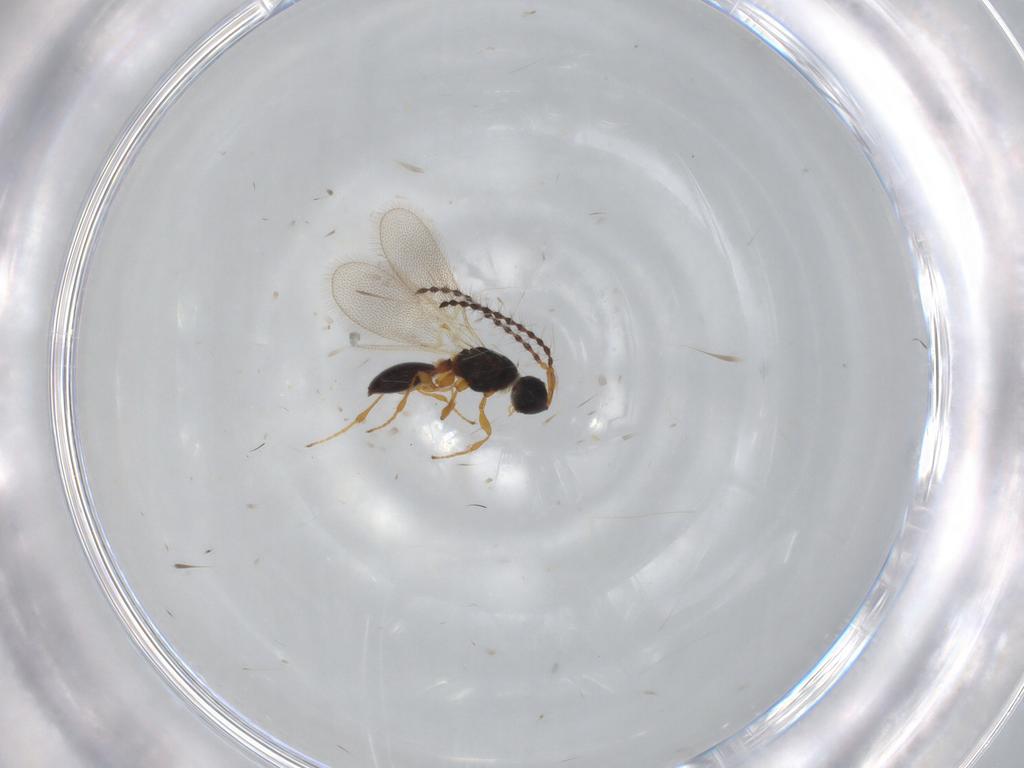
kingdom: Animalia
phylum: Arthropoda
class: Insecta
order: Hymenoptera
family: Diapriidae
